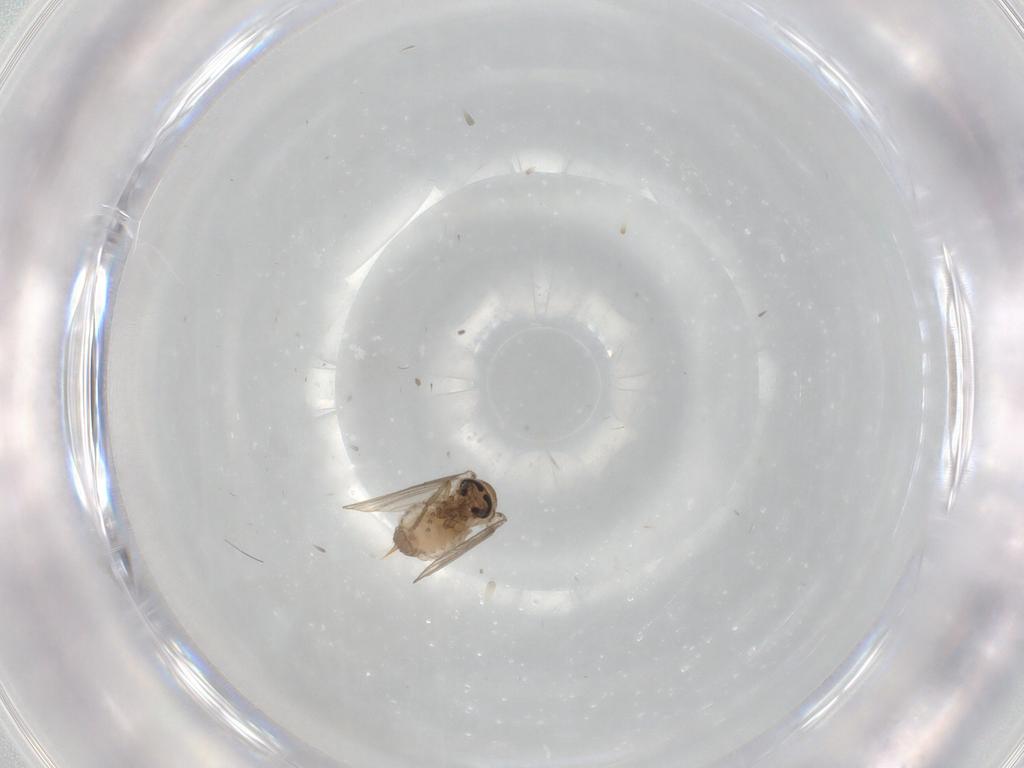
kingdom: Animalia
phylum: Arthropoda
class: Insecta
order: Diptera
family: Psychodidae
